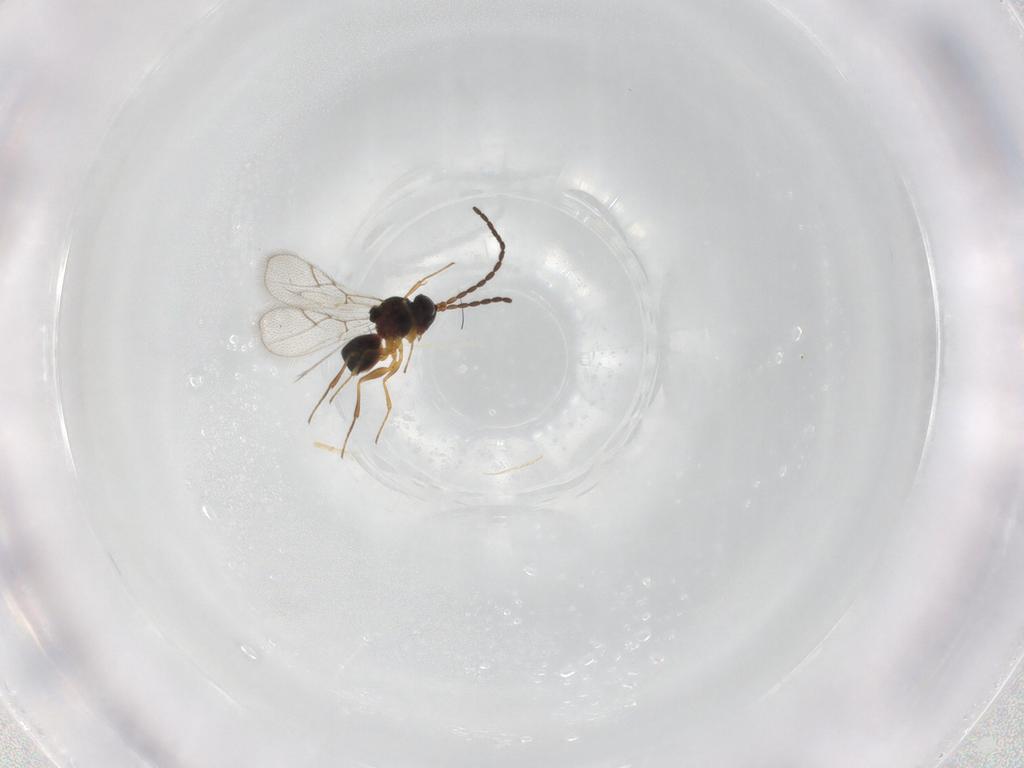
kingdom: Animalia
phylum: Arthropoda
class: Insecta
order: Hymenoptera
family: Figitidae
